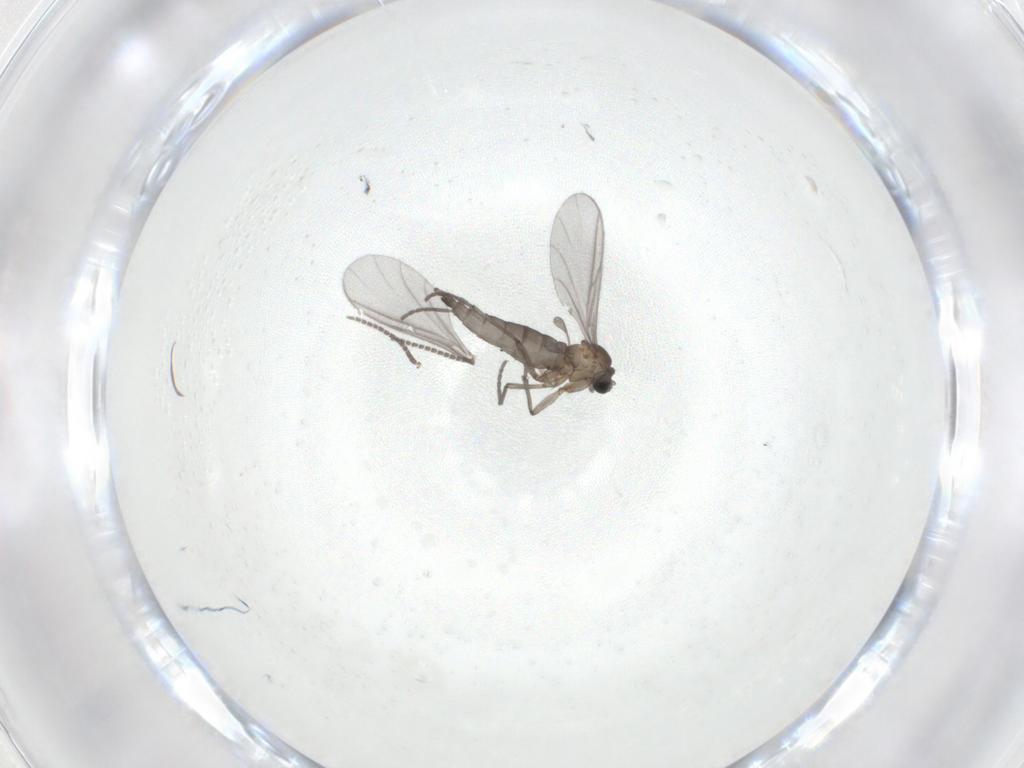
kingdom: Animalia
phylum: Arthropoda
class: Insecta
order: Diptera
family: Sciaridae
